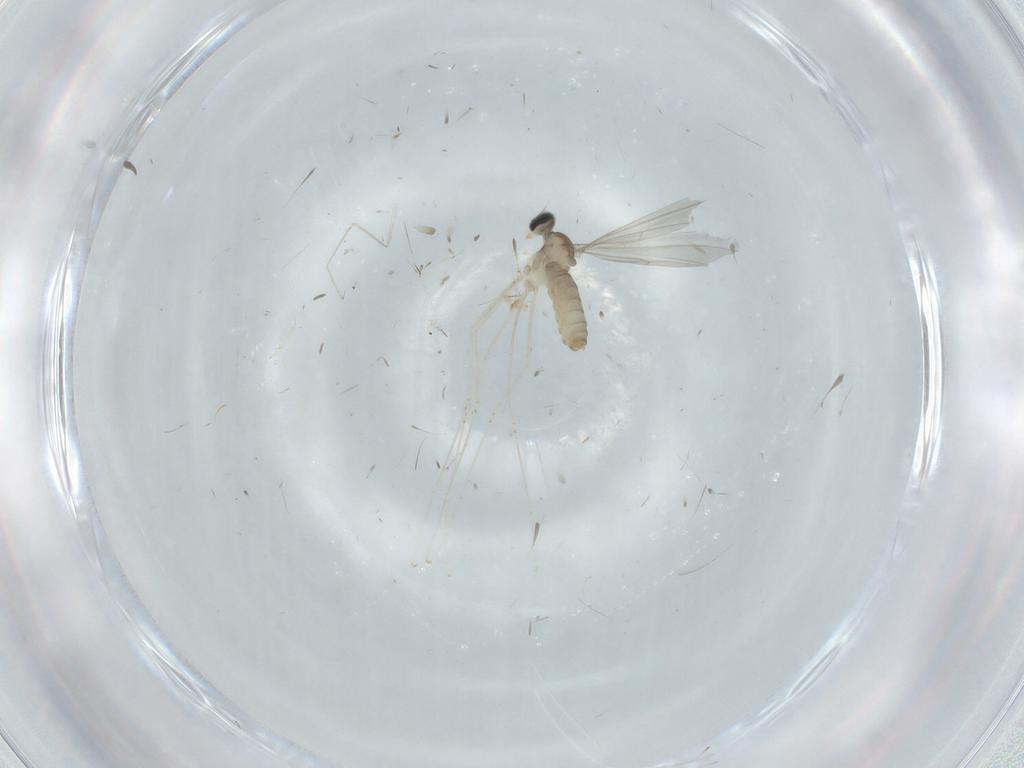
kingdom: Animalia
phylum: Arthropoda
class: Insecta
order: Diptera
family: Cecidomyiidae
